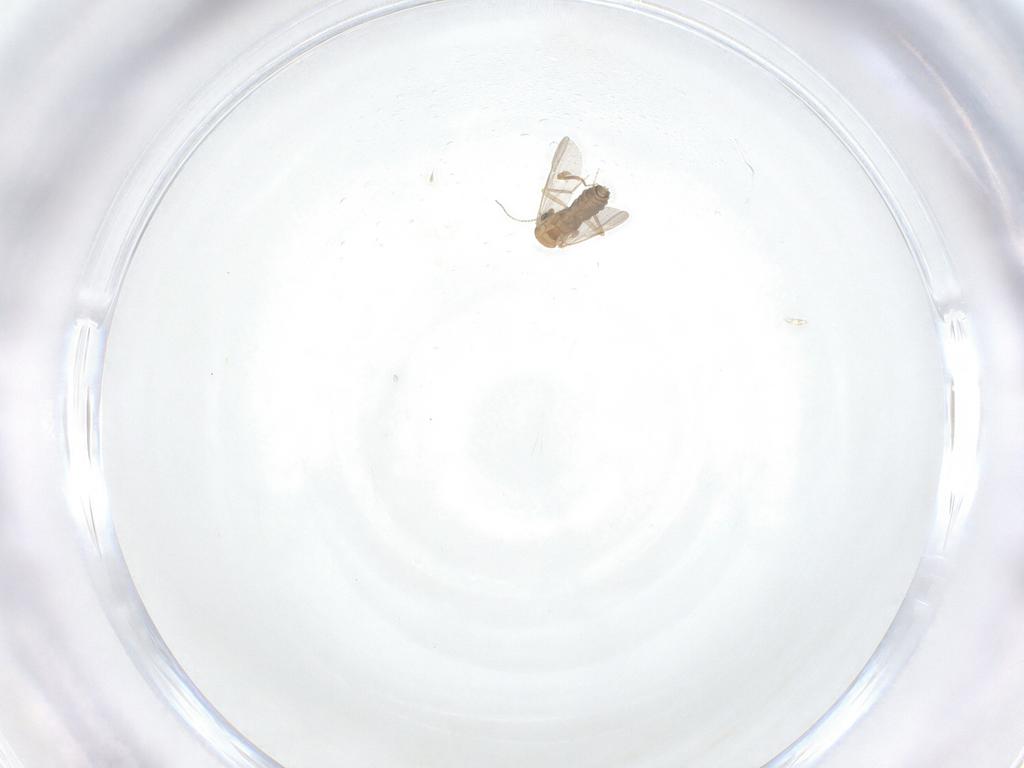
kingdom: Animalia
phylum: Arthropoda
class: Insecta
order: Diptera
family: Ceratopogonidae
